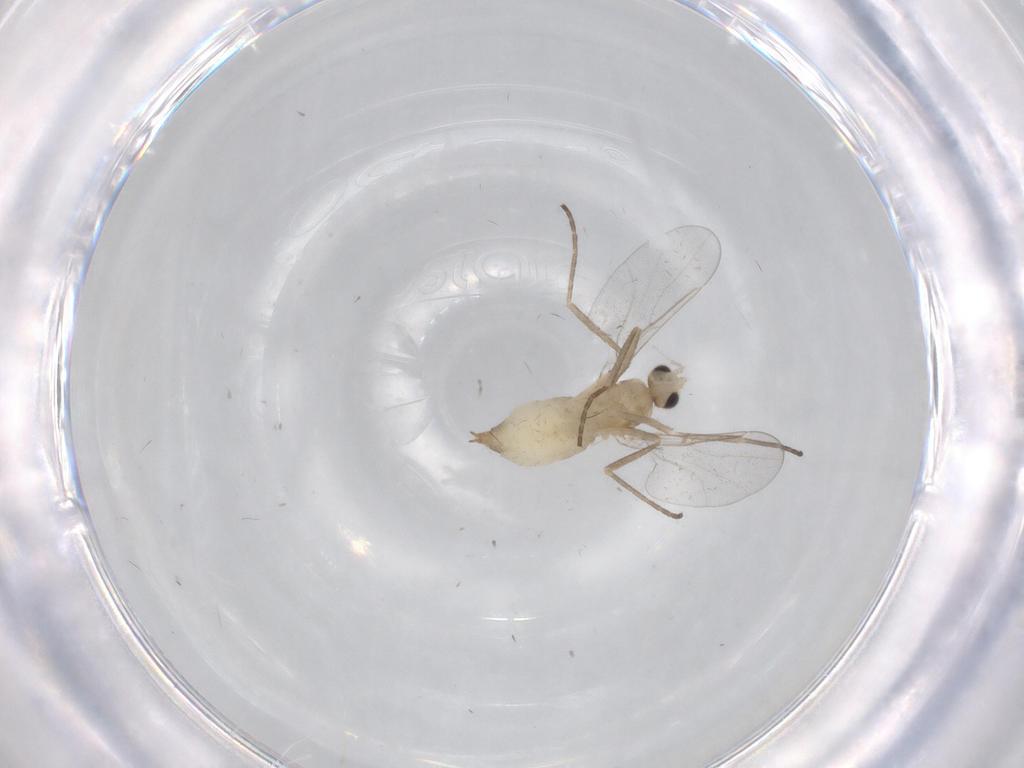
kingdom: Animalia
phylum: Arthropoda
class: Insecta
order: Diptera
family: Cecidomyiidae
